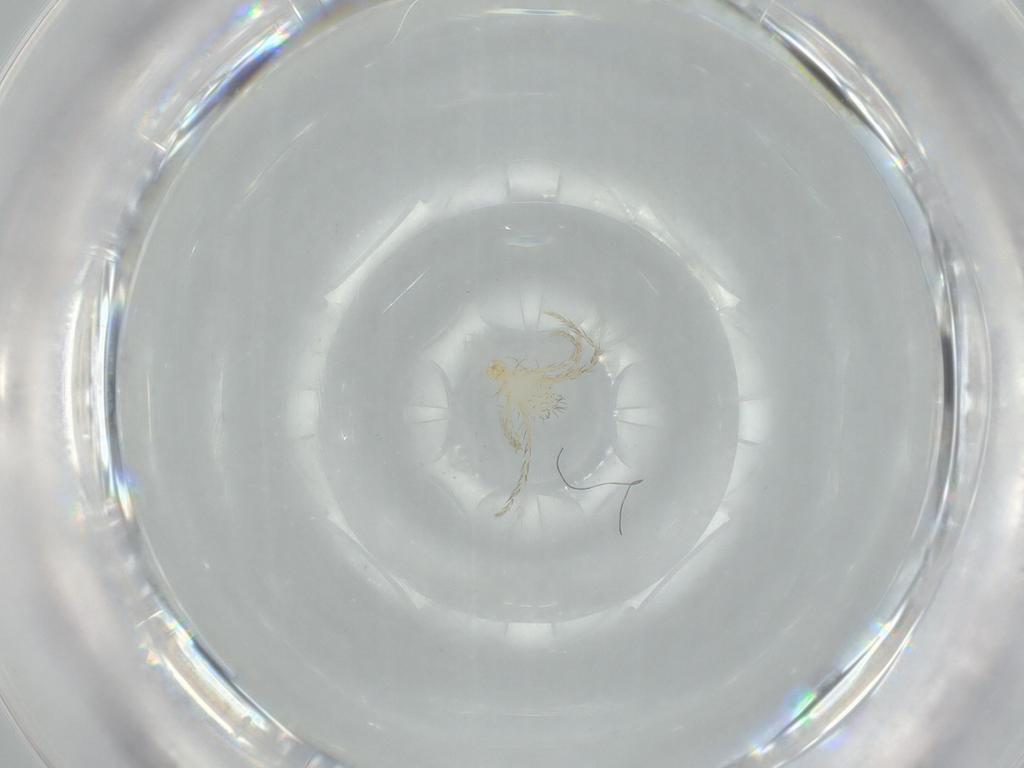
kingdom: Animalia
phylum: Arthropoda
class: Arachnida
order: Trombidiformes
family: Erythraeidae
